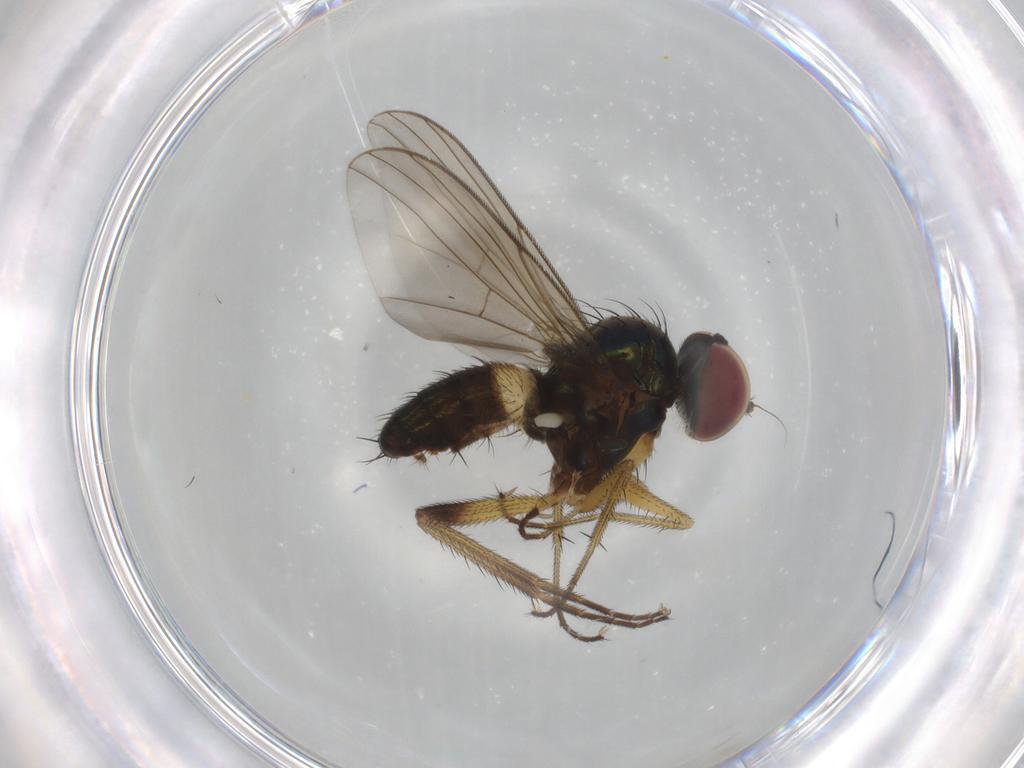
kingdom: Animalia
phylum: Arthropoda
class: Insecta
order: Diptera
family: Dolichopodidae
